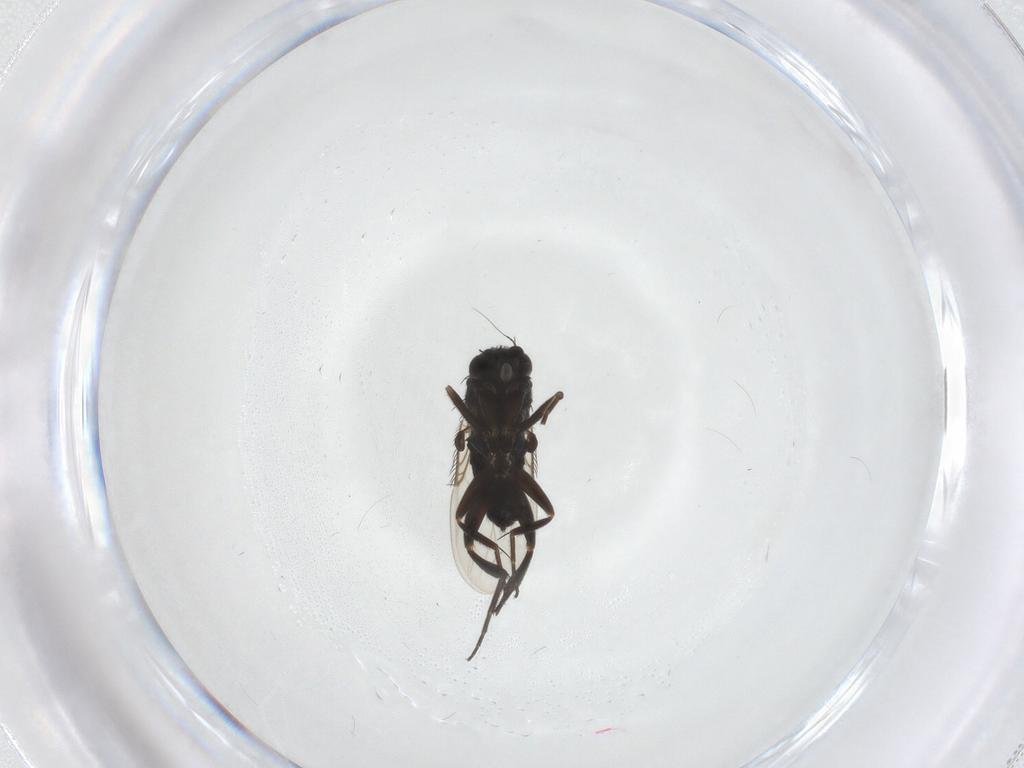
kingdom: Animalia
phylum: Arthropoda
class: Insecta
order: Diptera
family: Phoridae
